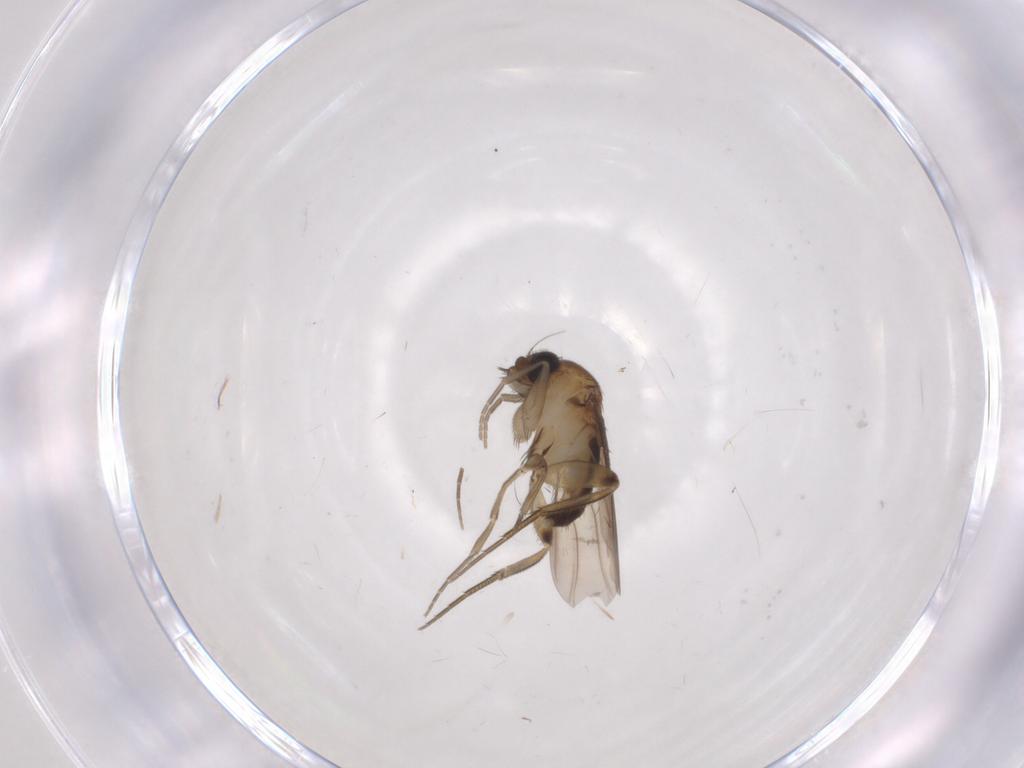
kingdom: Animalia
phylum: Arthropoda
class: Insecta
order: Diptera
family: Phoridae
